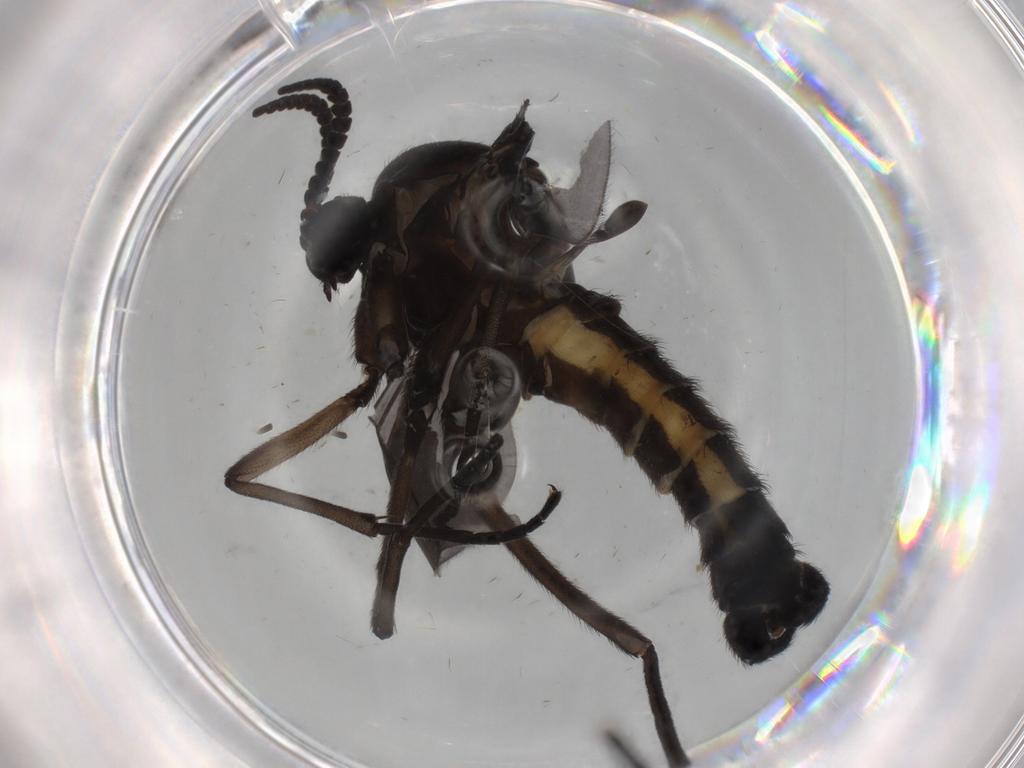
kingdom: Animalia
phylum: Arthropoda
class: Insecta
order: Diptera
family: Sciaridae
